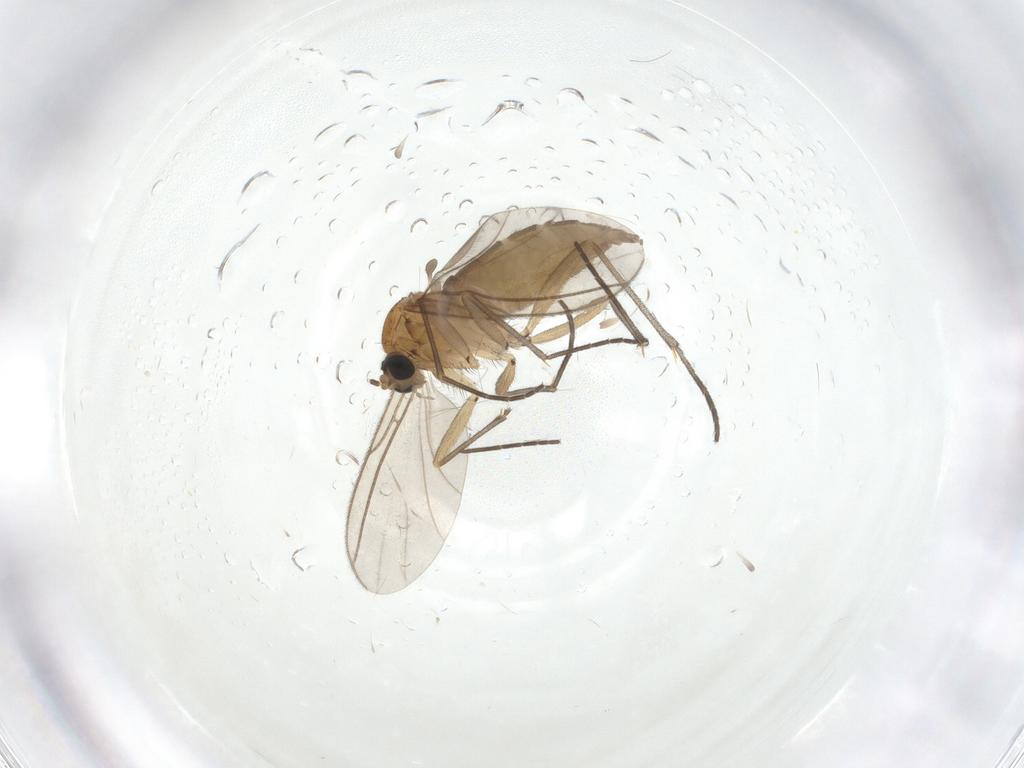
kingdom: Animalia
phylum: Arthropoda
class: Insecta
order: Diptera
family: Sciaridae
